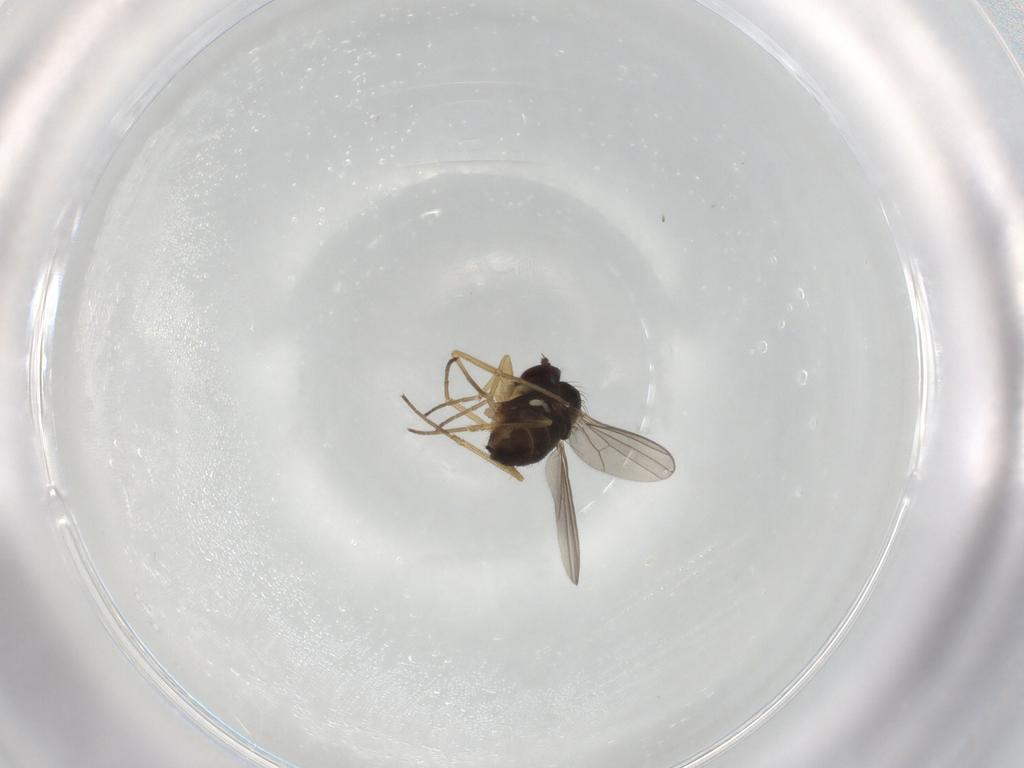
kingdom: Animalia
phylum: Arthropoda
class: Insecta
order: Diptera
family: Dolichopodidae
